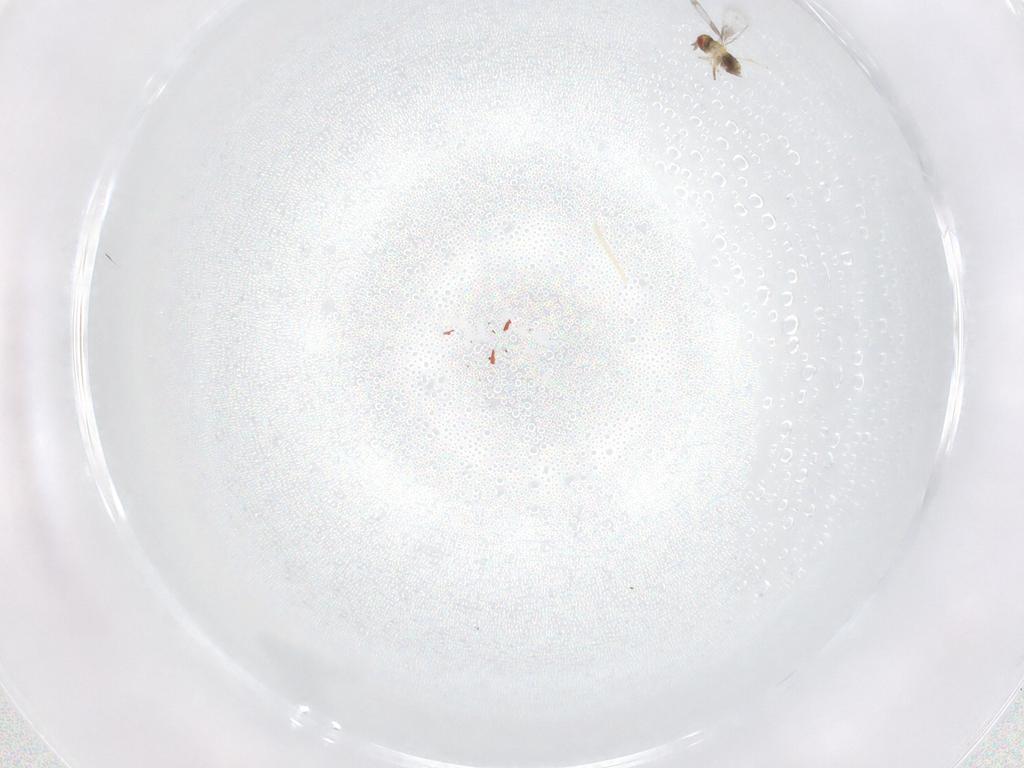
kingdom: Animalia
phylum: Arthropoda
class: Insecta
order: Hymenoptera
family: Trichogrammatidae
